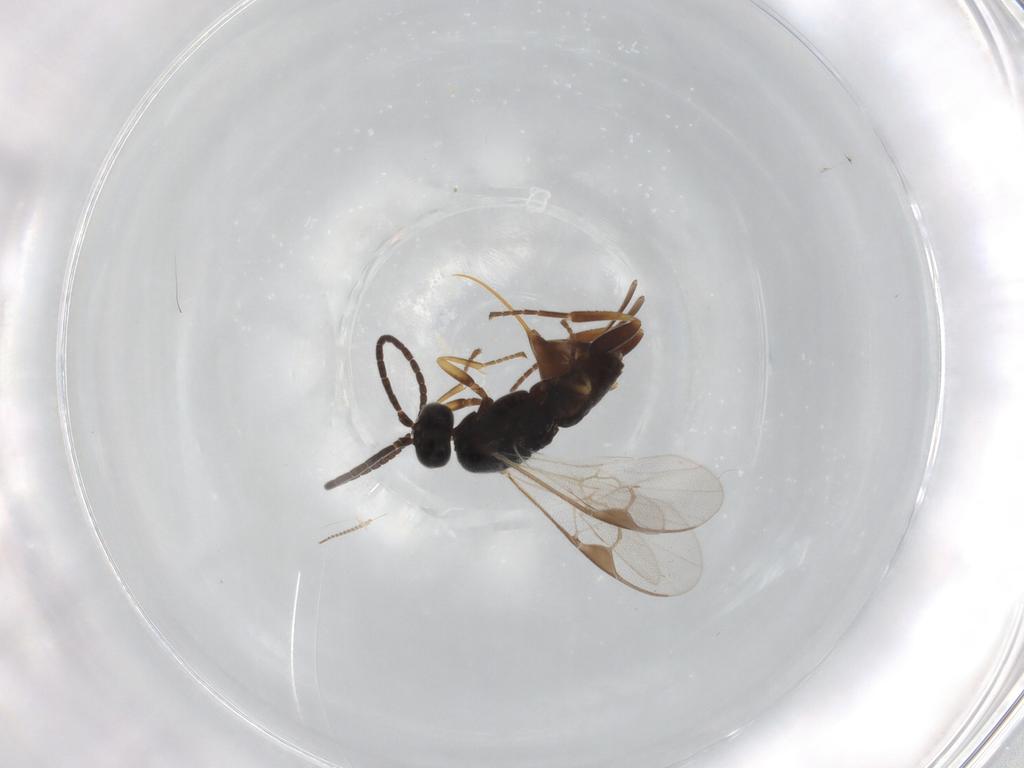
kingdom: Animalia
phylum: Arthropoda
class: Insecta
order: Hymenoptera
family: Braconidae
